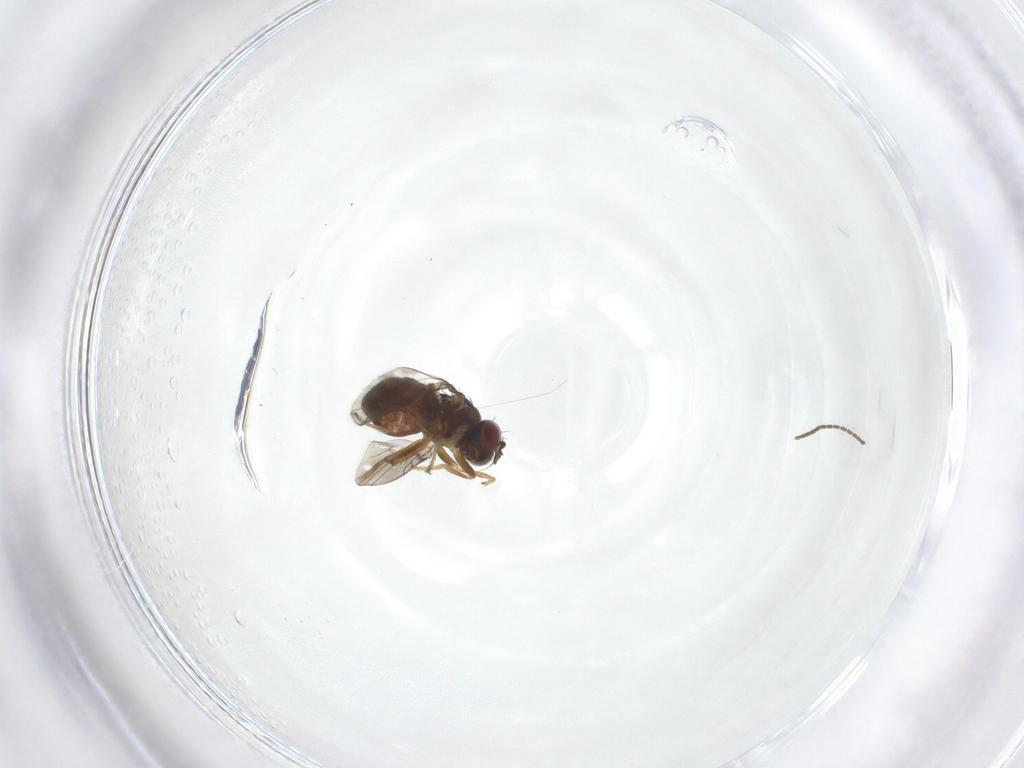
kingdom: Animalia
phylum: Arthropoda
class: Insecta
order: Diptera
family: Ephydridae
